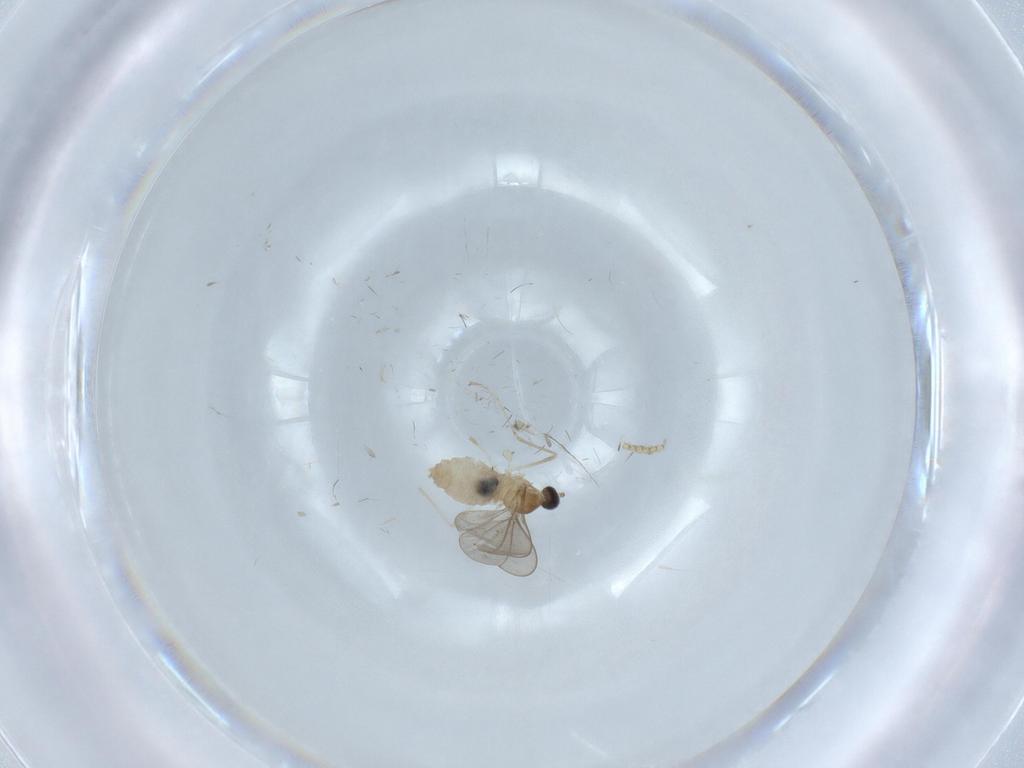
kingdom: Animalia
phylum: Arthropoda
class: Insecta
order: Diptera
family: Cecidomyiidae
